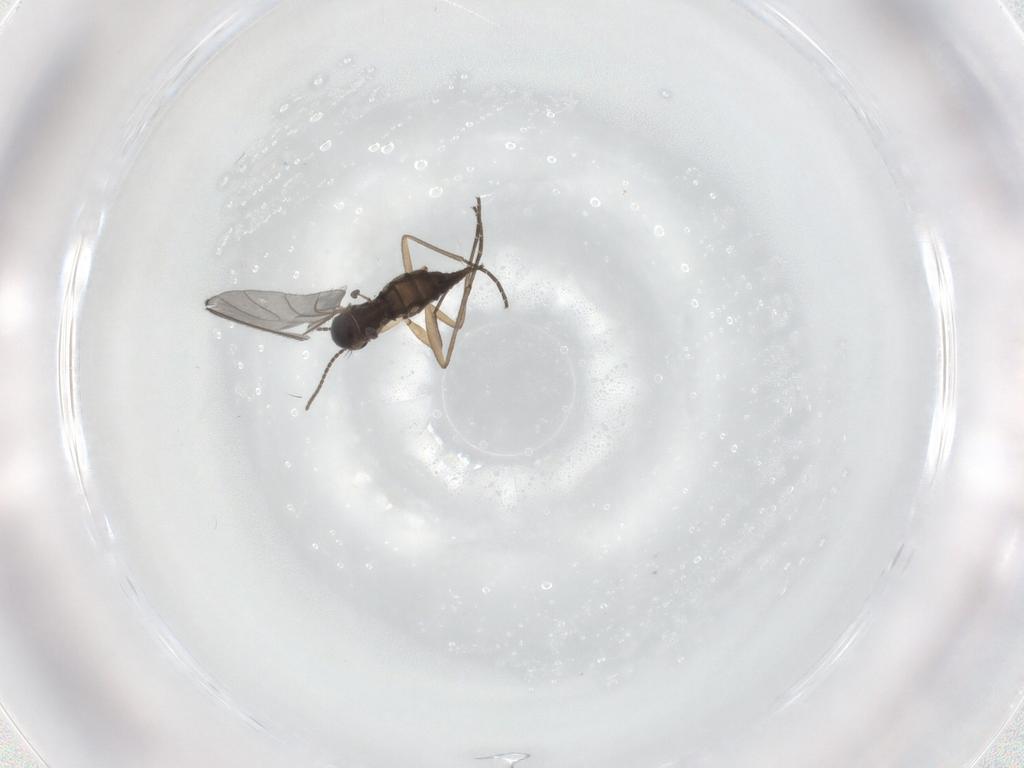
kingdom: Animalia
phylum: Arthropoda
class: Insecta
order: Diptera
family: Sciaridae
